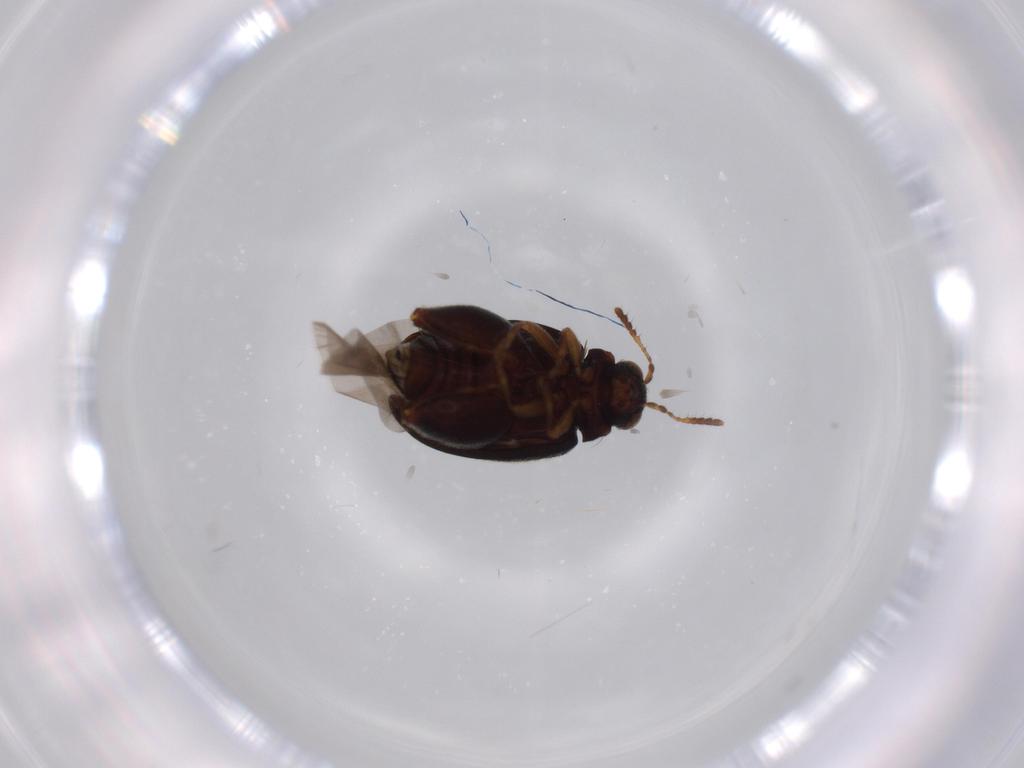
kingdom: Animalia
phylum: Arthropoda
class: Insecta
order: Coleoptera
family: Chrysomelidae
